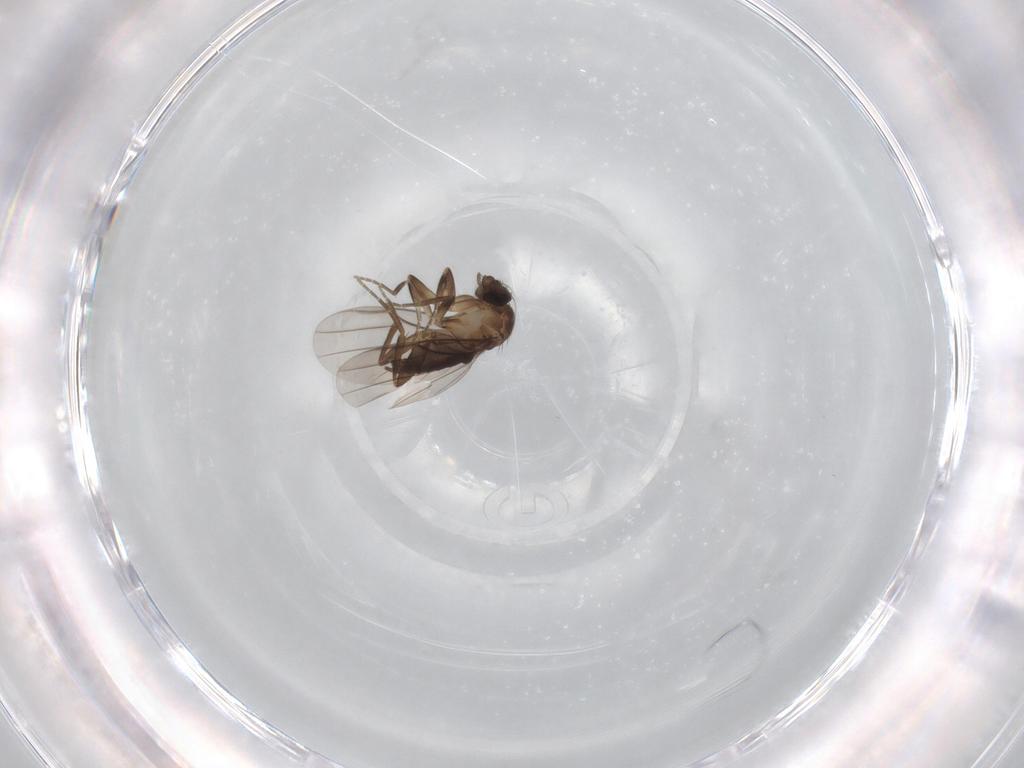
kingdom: Animalia
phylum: Arthropoda
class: Insecta
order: Diptera
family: Phoridae
